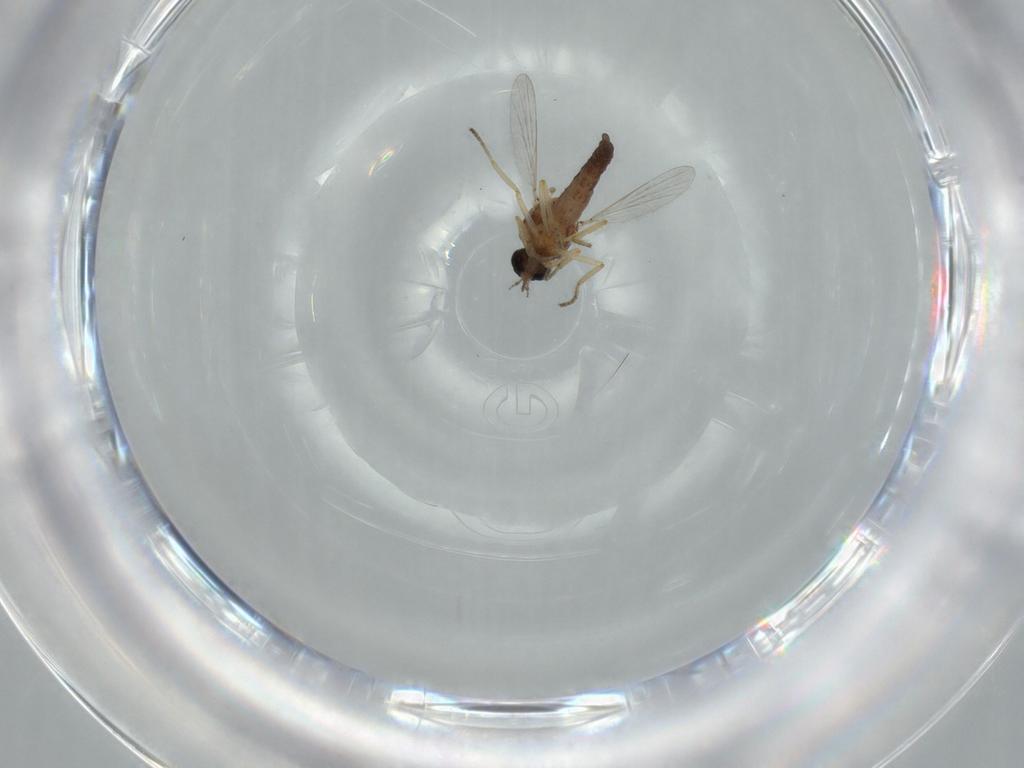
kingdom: Animalia
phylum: Arthropoda
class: Insecta
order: Diptera
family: Ceratopogonidae
